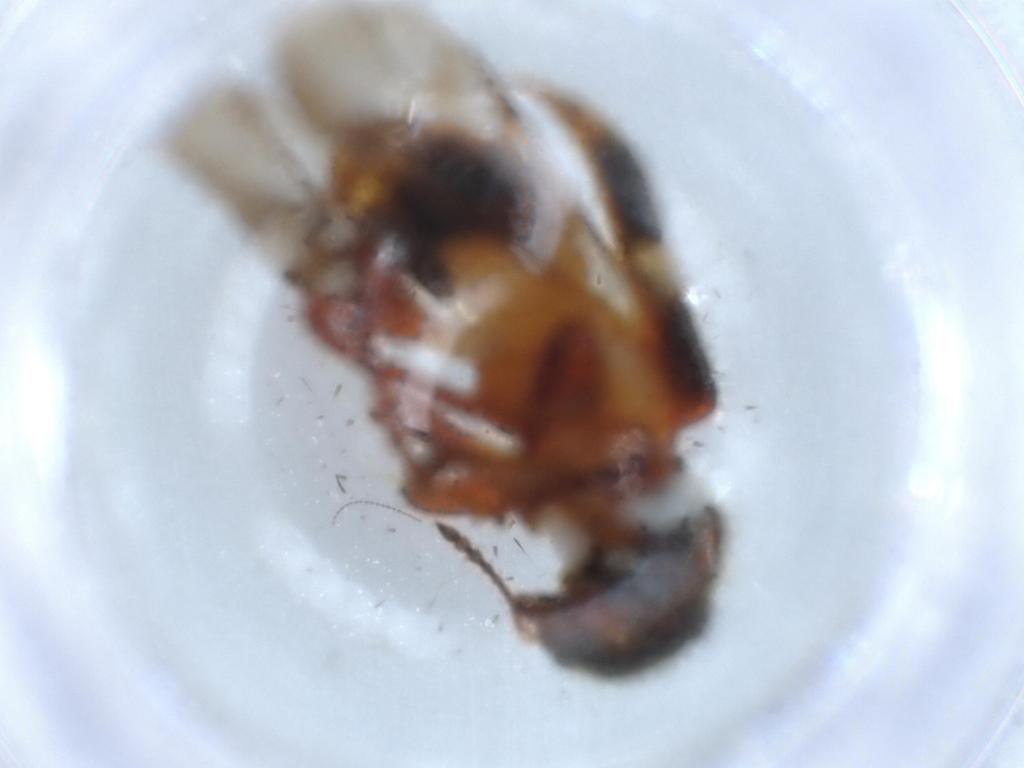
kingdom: Animalia
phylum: Arthropoda
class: Insecta
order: Coleoptera
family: Cleridae
